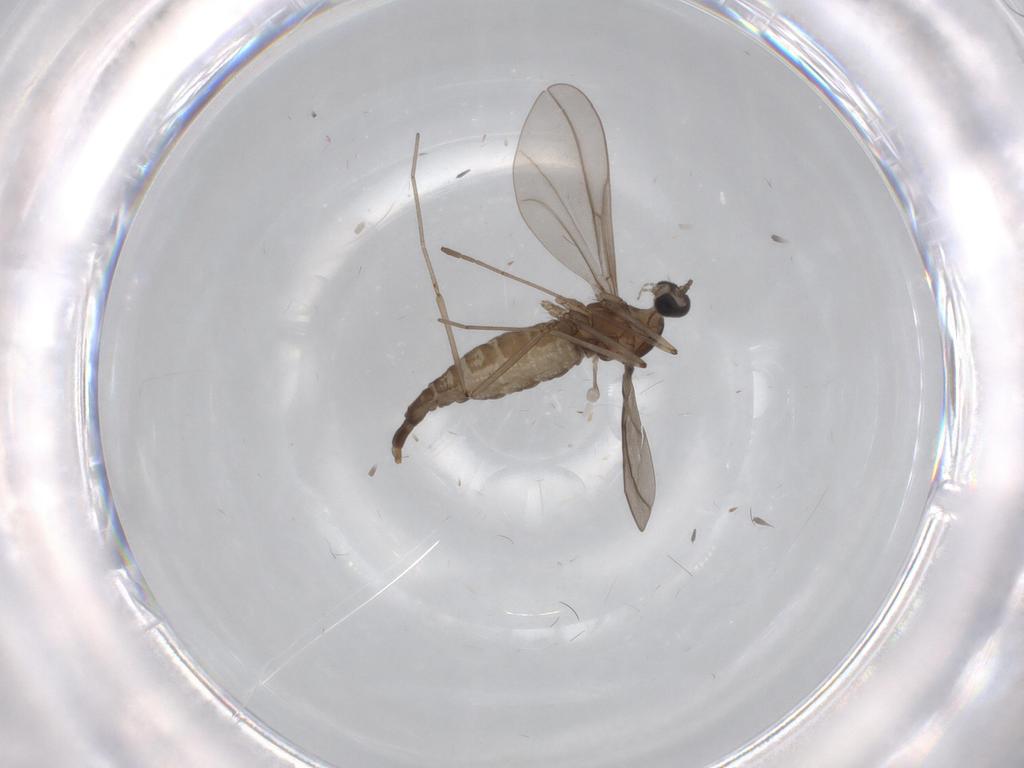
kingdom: Animalia
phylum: Arthropoda
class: Insecta
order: Diptera
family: Cecidomyiidae
